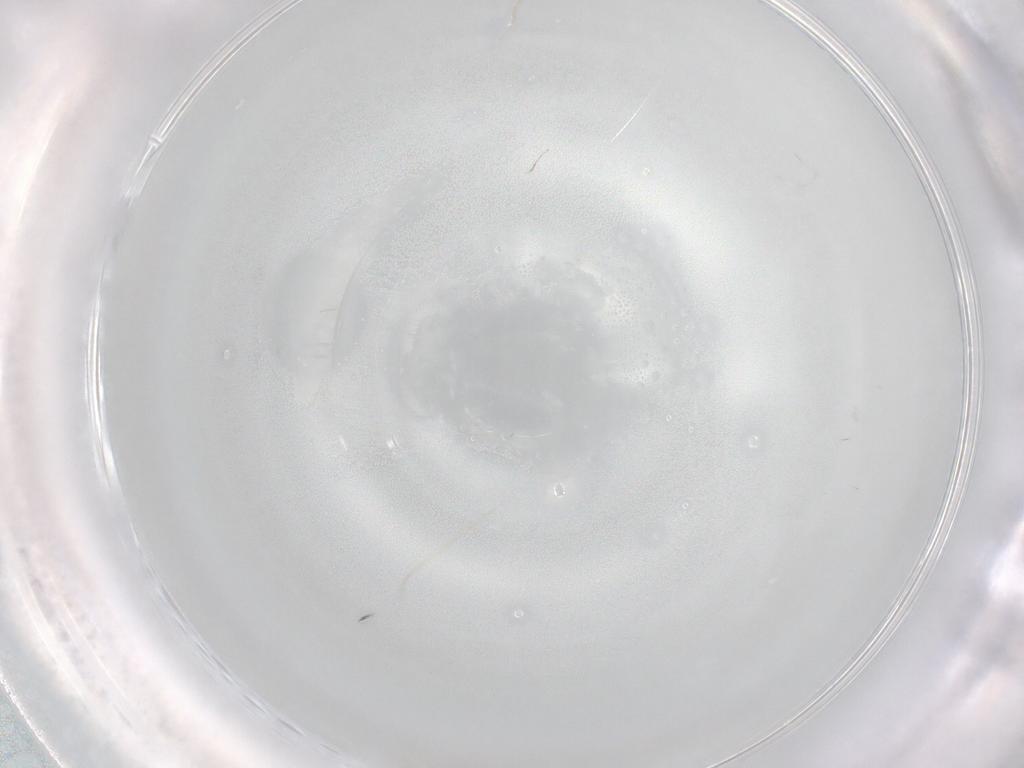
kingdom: Animalia
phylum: Arthropoda
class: Insecta
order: Diptera
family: Cecidomyiidae
